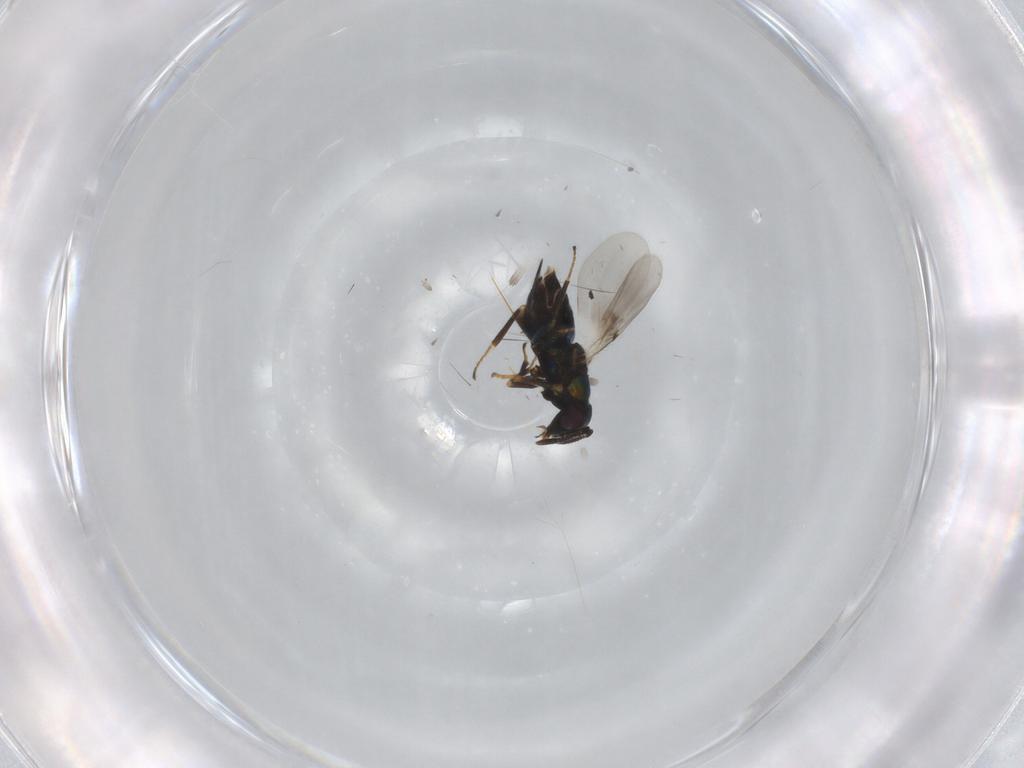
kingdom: Animalia
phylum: Arthropoda
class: Insecta
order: Hymenoptera
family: Encyrtidae
